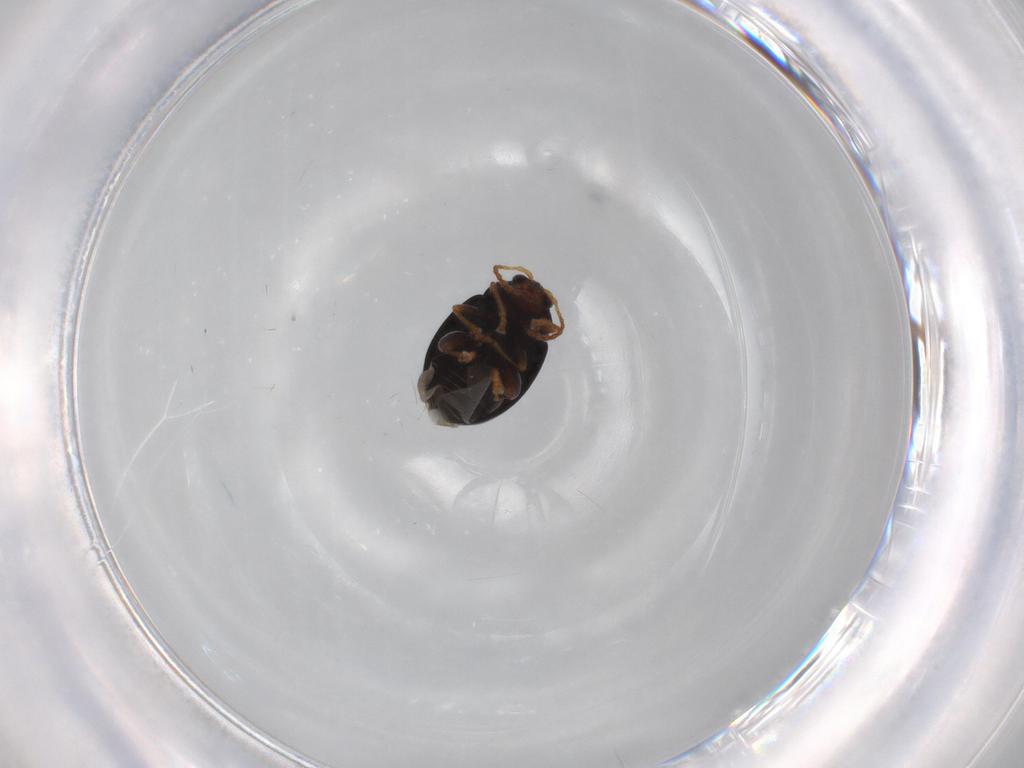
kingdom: Animalia
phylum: Arthropoda
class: Insecta
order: Coleoptera
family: Chrysomelidae
